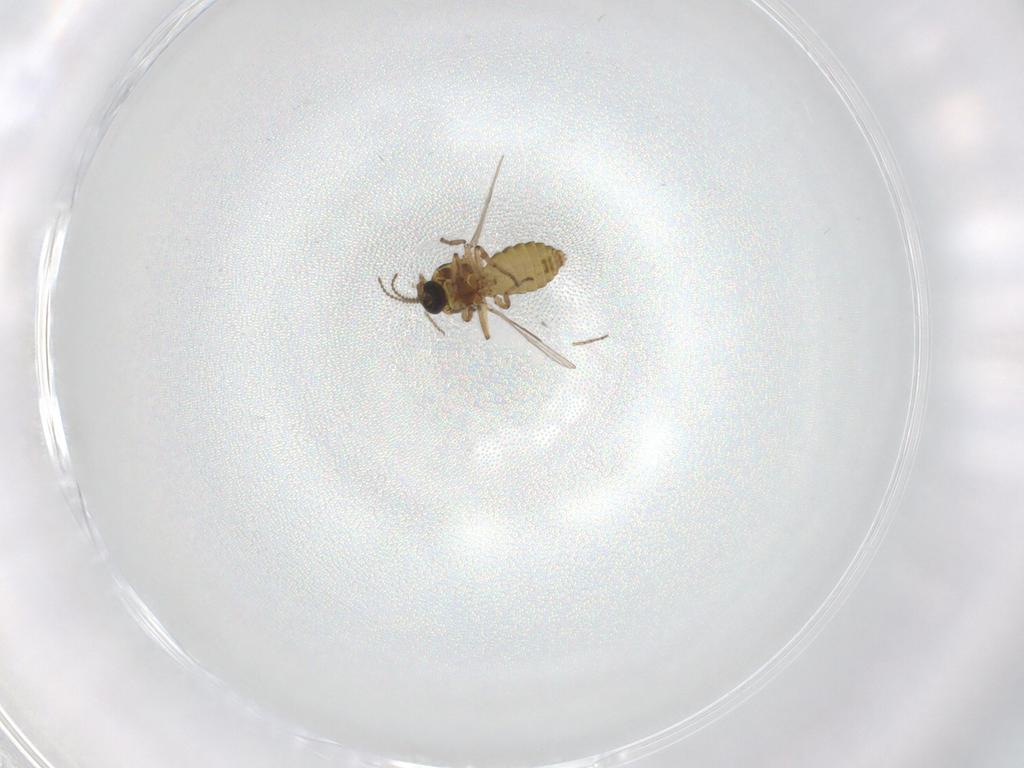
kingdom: Animalia
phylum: Arthropoda
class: Insecta
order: Diptera
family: Ceratopogonidae
